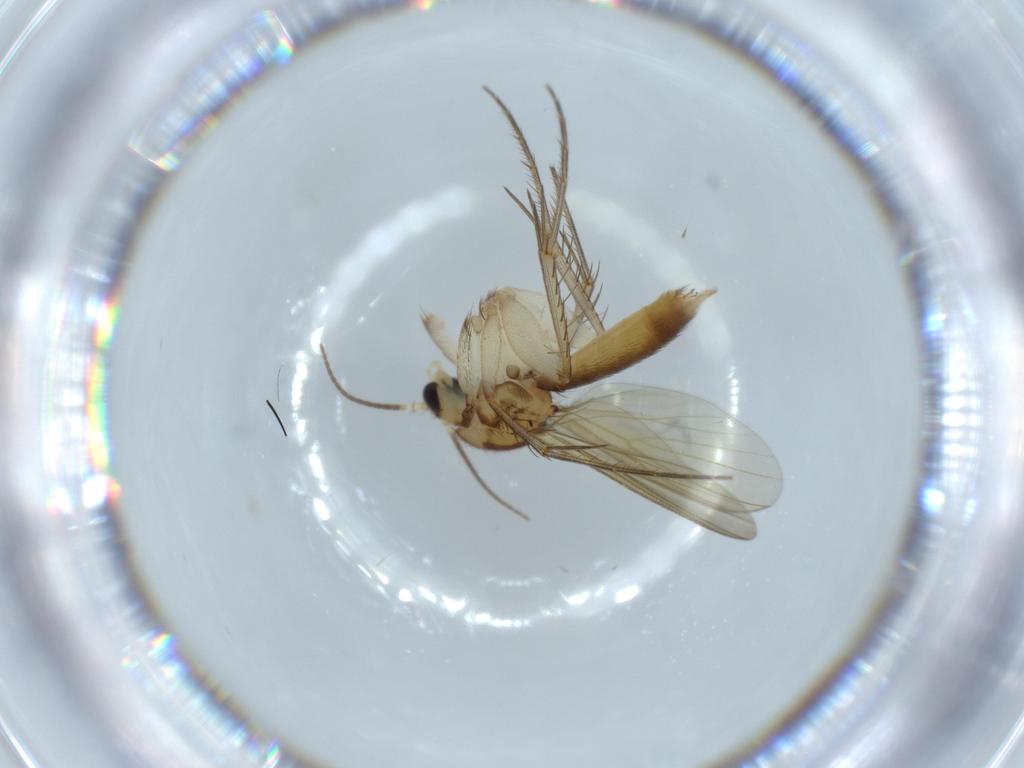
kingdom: Animalia
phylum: Arthropoda
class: Insecta
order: Diptera
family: Mycetophilidae
